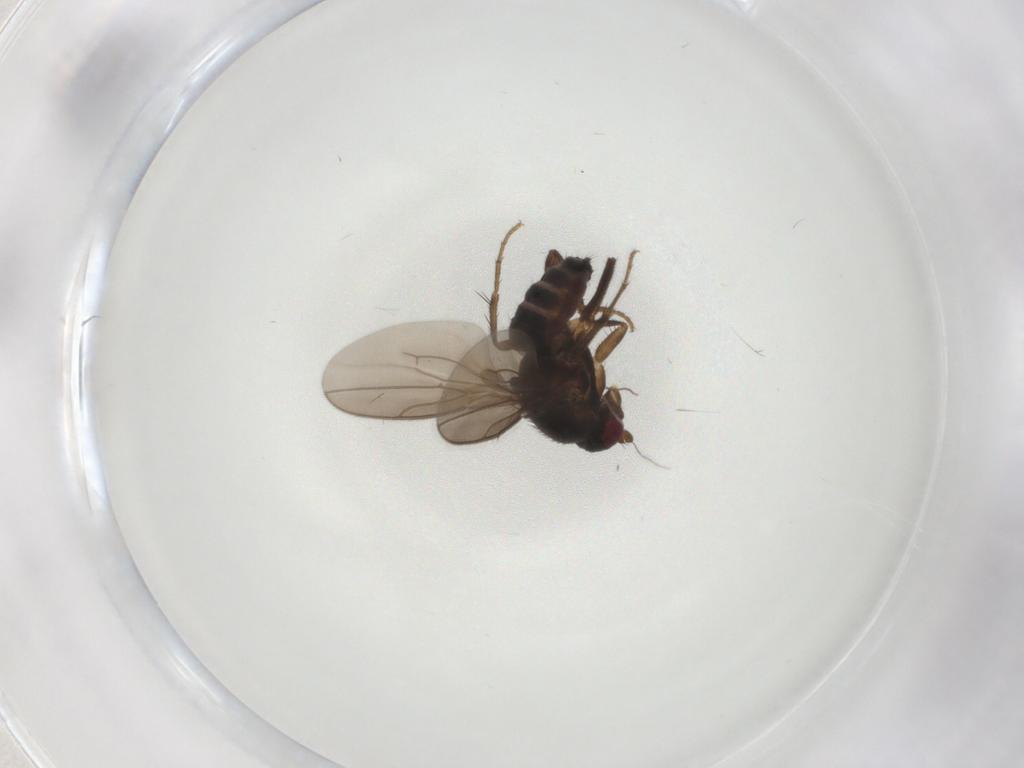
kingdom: Animalia
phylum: Arthropoda
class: Insecta
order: Diptera
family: Sphaeroceridae
